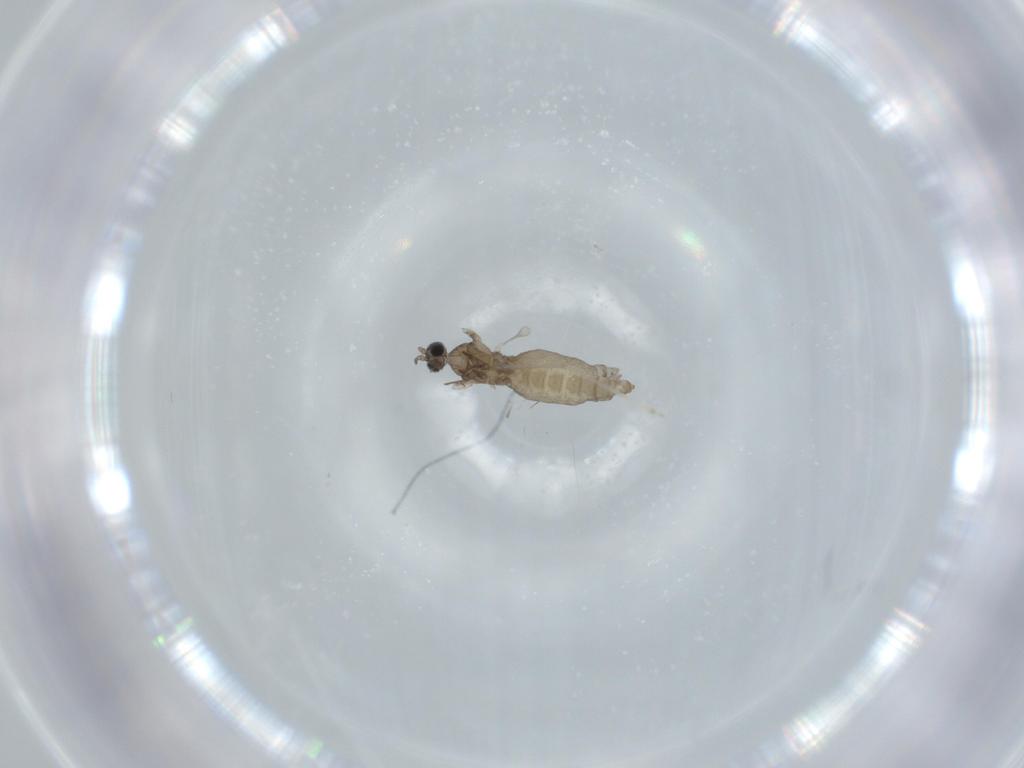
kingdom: Animalia
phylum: Arthropoda
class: Insecta
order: Diptera
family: Cecidomyiidae
